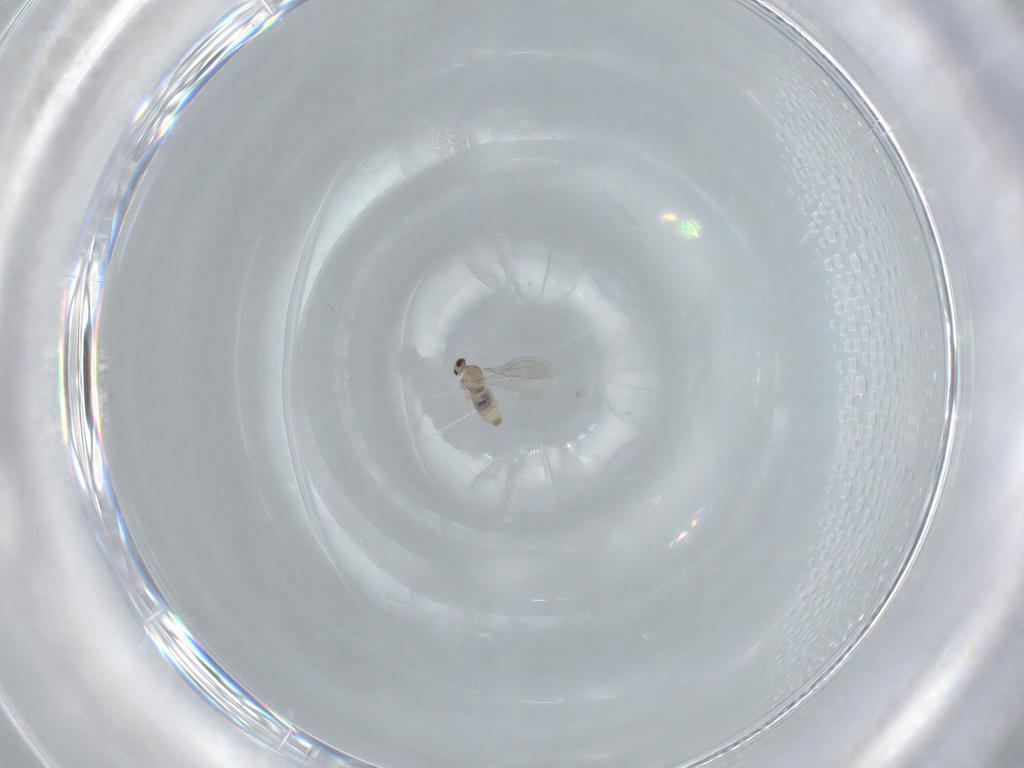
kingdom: Animalia
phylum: Arthropoda
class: Insecta
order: Diptera
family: Cecidomyiidae
